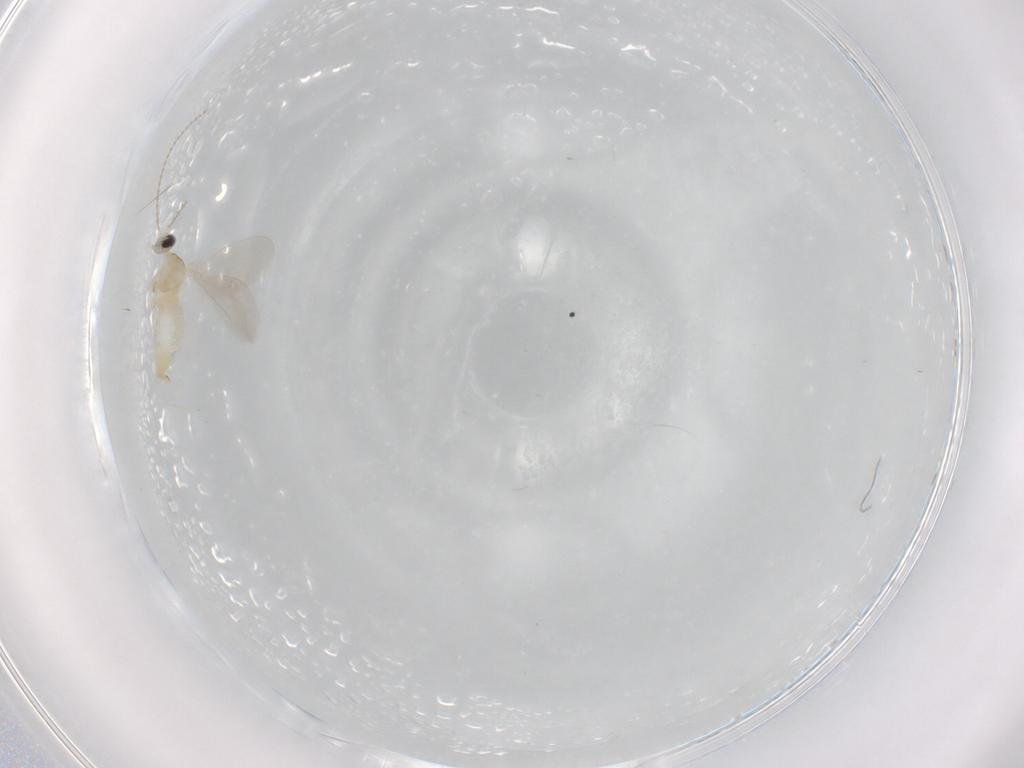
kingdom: Animalia
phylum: Arthropoda
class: Insecta
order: Diptera
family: Cecidomyiidae
